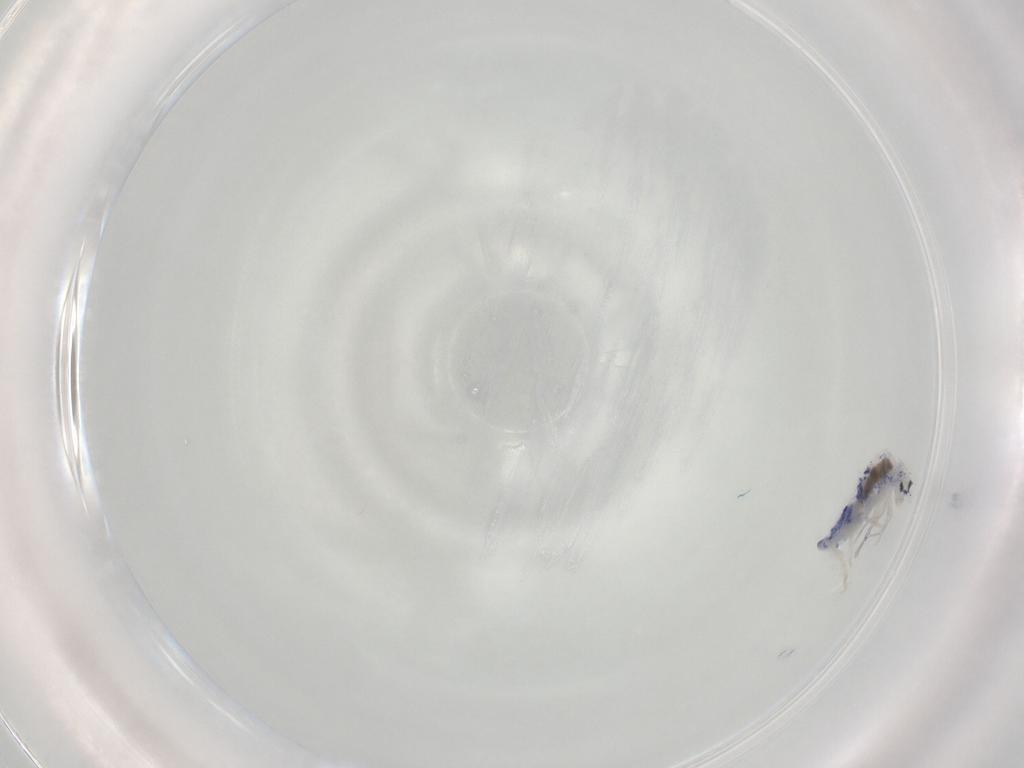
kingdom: Animalia
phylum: Arthropoda
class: Collembola
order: Entomobryomorpha
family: Entomobryidae
